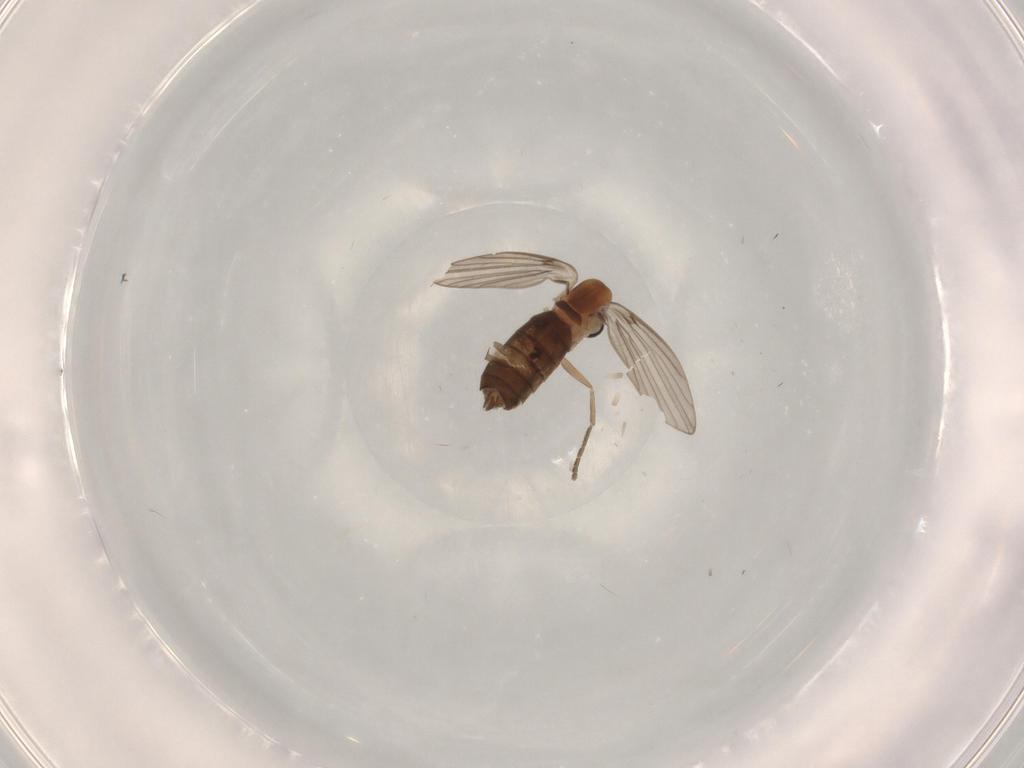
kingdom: Animalia
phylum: Arthropoda
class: Insecta
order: Diptera
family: Psychodidae
